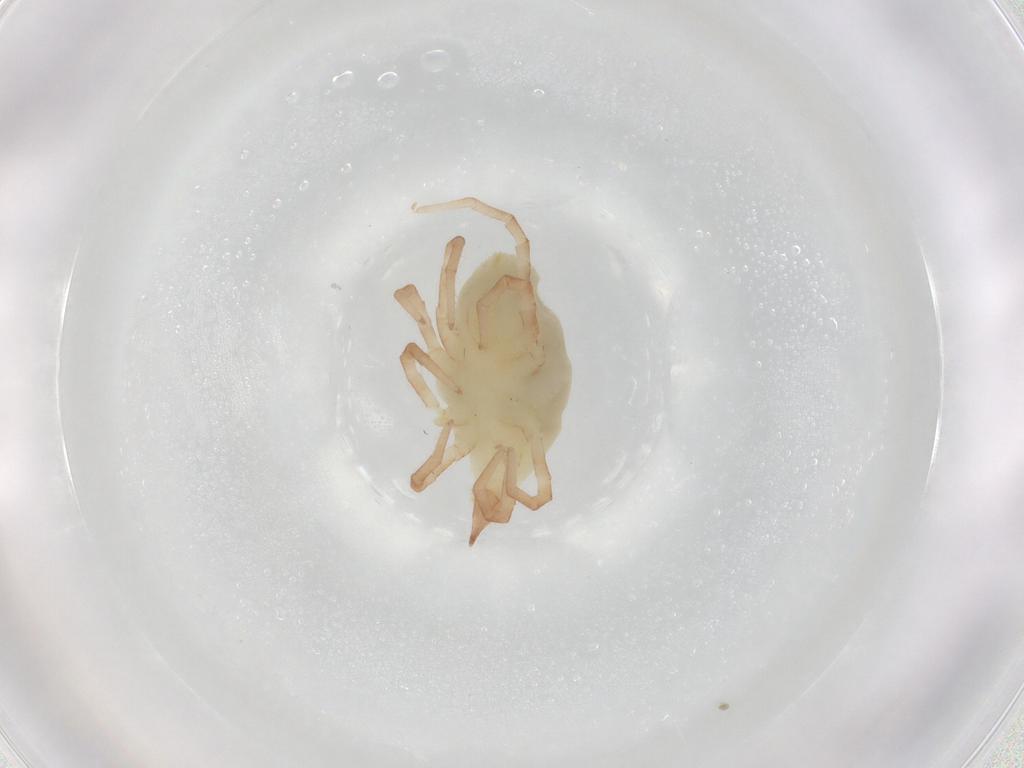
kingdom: Animalia
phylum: Arthropoda
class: Arachnida
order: Trombidiformes
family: Bdellidae
